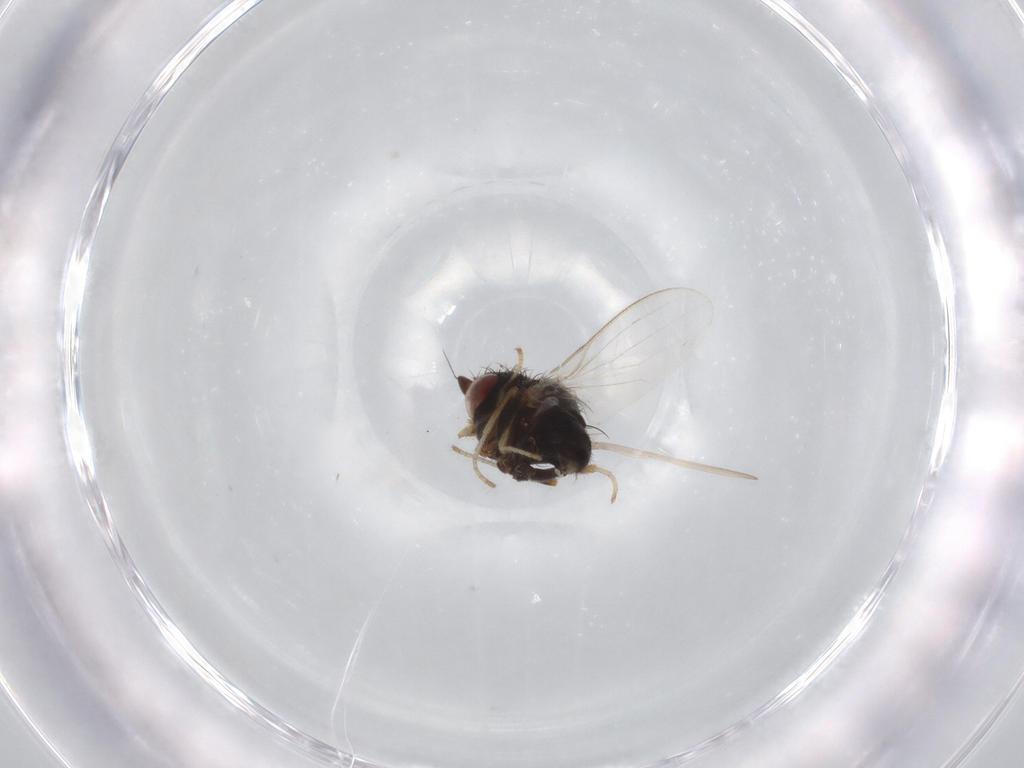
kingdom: Animalia
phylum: Arthropoda
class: Insecta
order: Diptera
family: Milichiidae
